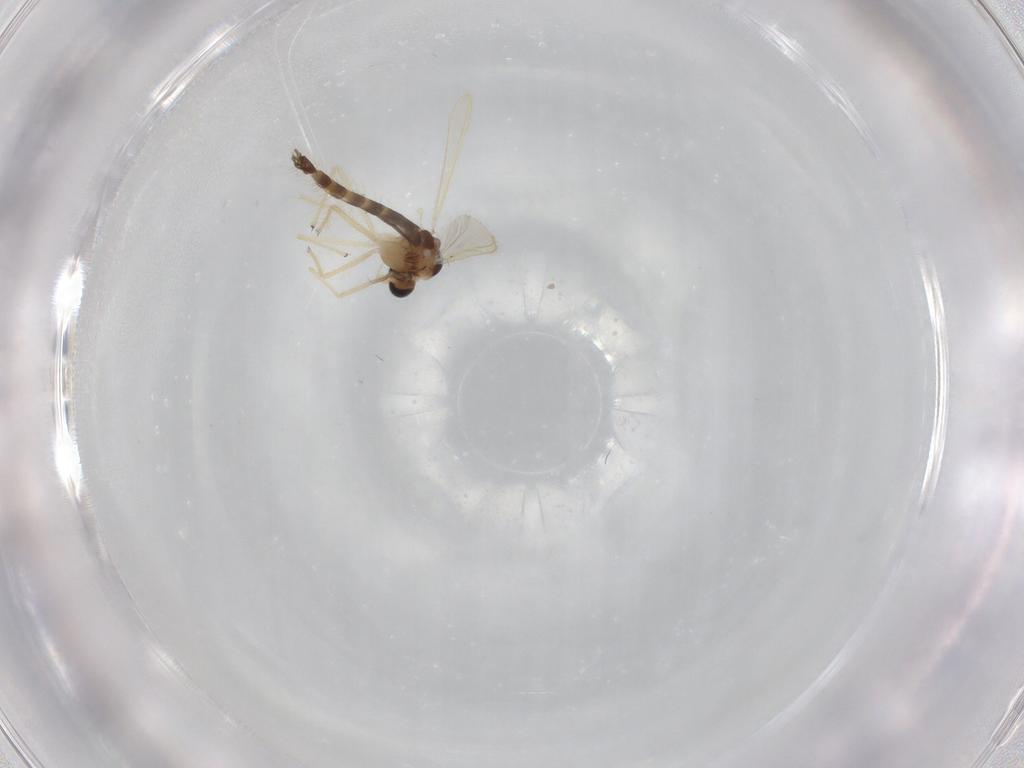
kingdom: Animalia
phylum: Arthropoda
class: Insecta
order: Diptera
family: Chironomidae
